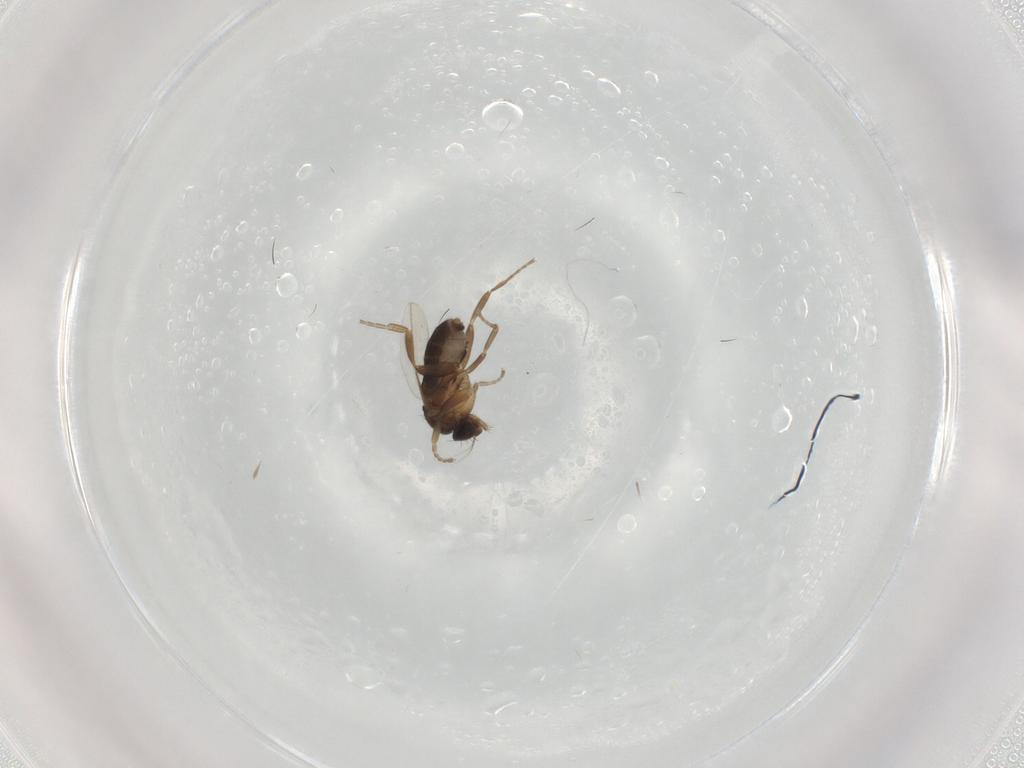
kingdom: Animalia
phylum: Arthropoda
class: Insecta
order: Diptera
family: Phoridae
